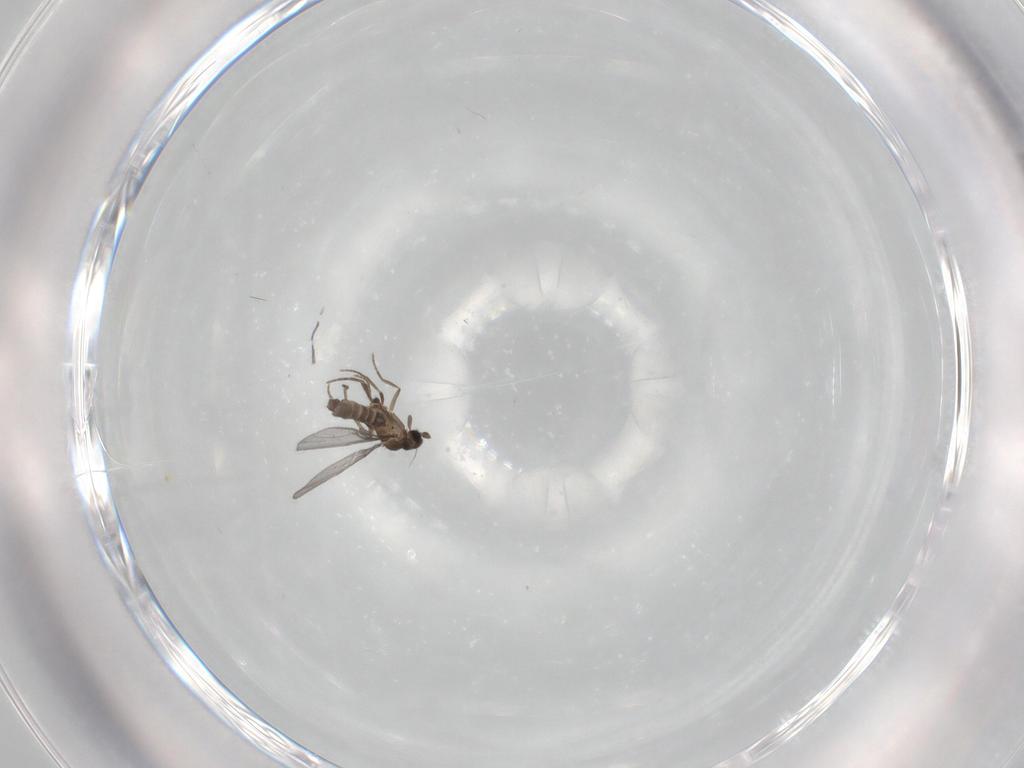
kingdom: Animalia
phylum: Arthropoda
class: Insecta
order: Diptera
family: Phoridae
